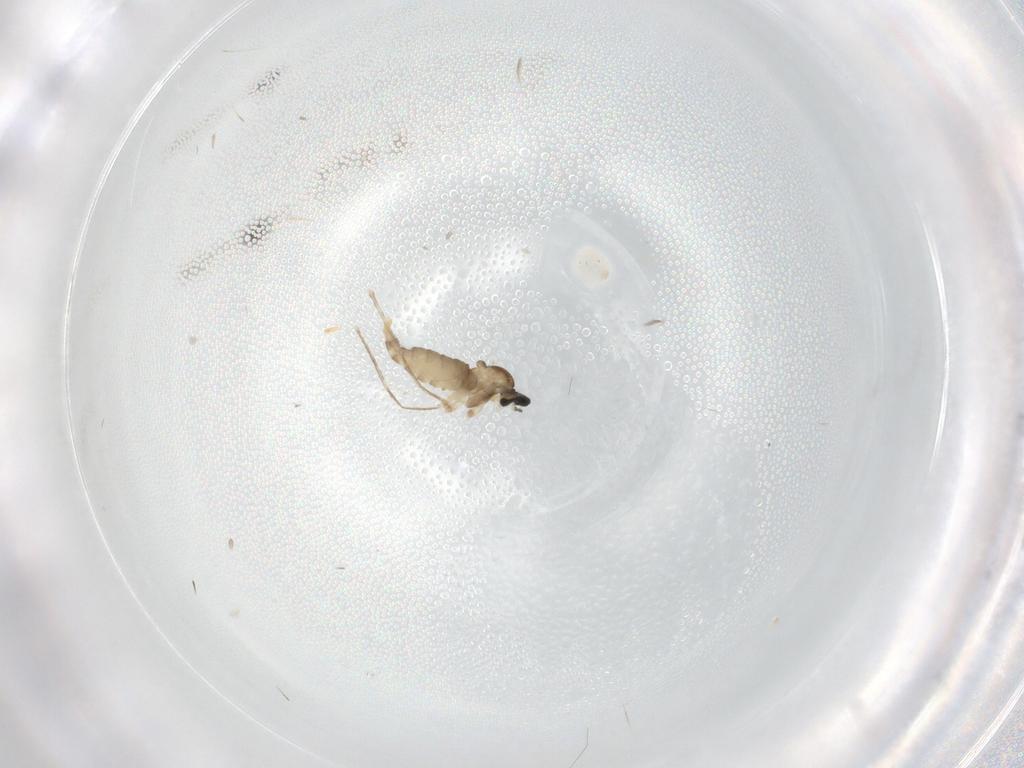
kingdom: Animalia
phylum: Arthropoda
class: Insecta
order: Diptera
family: Cecidomyiidae
